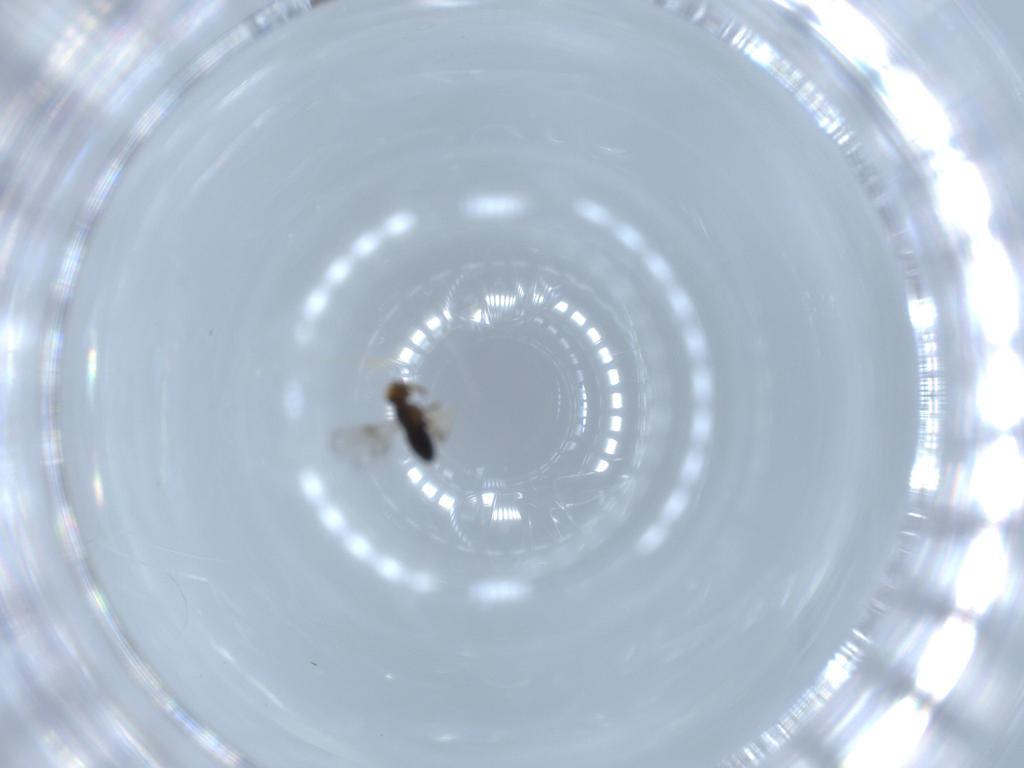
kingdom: Animalia
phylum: Arthropoda
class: Insecta
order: Hymenoptera
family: Signiphoridae
